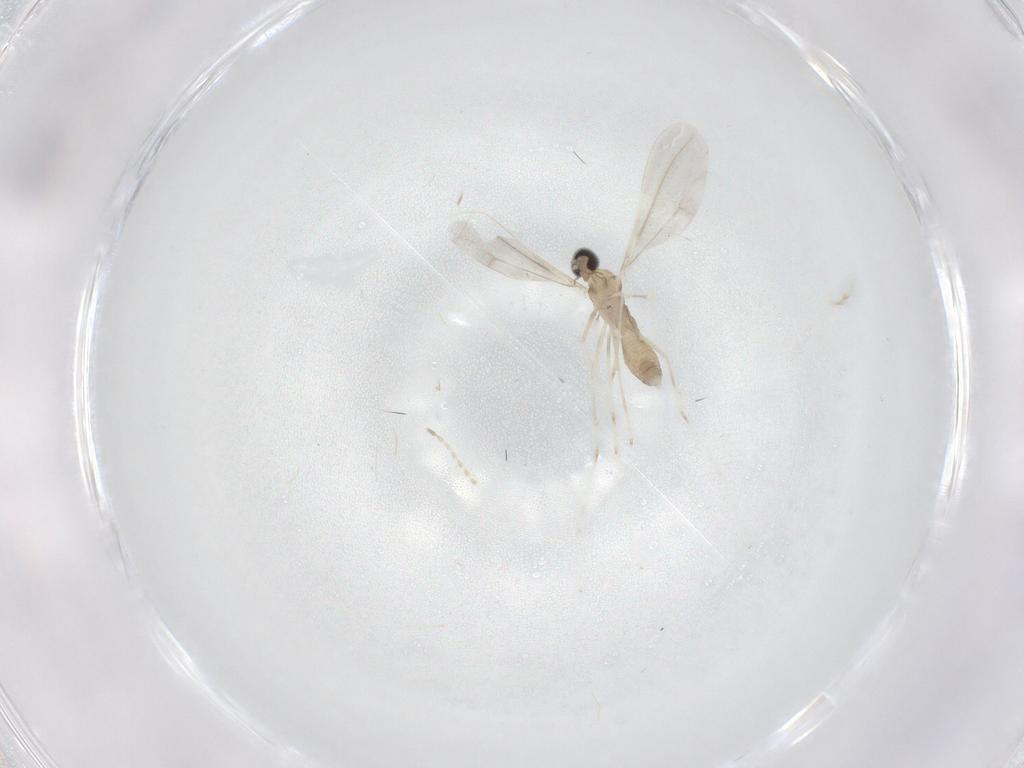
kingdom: Animalia
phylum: Arthropoda
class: Insecta
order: Diptera
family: Cecidomyiidae
